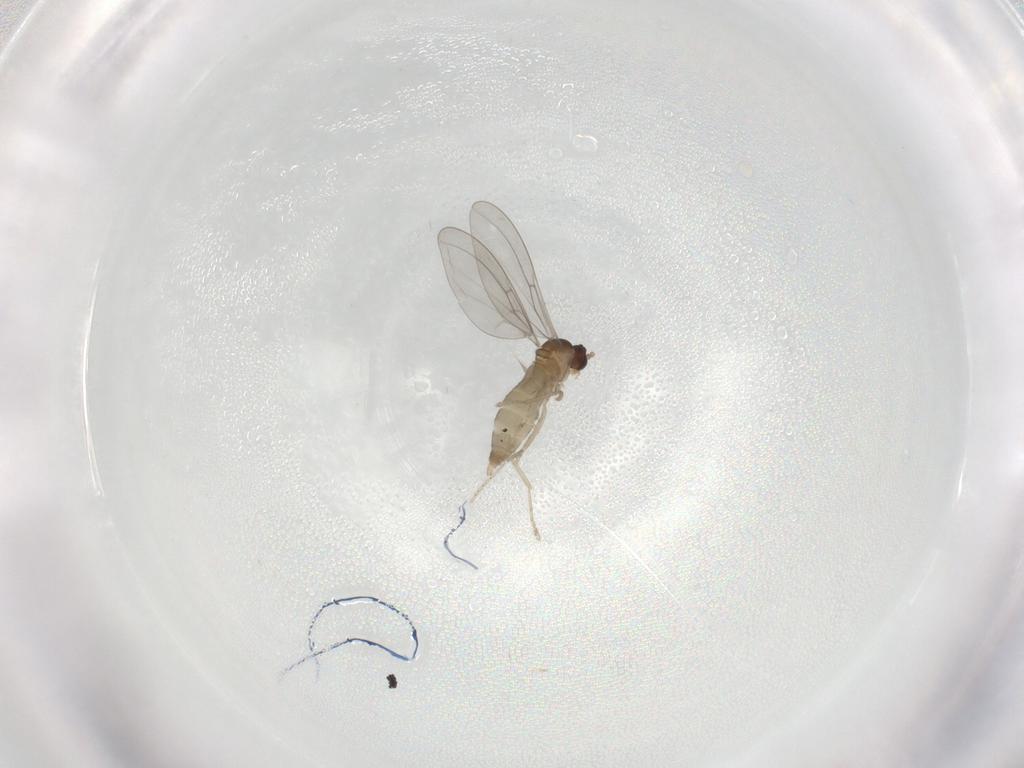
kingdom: Animalia
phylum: Arthropoda
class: Insecta
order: Diptera
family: Cecidomyiidae
